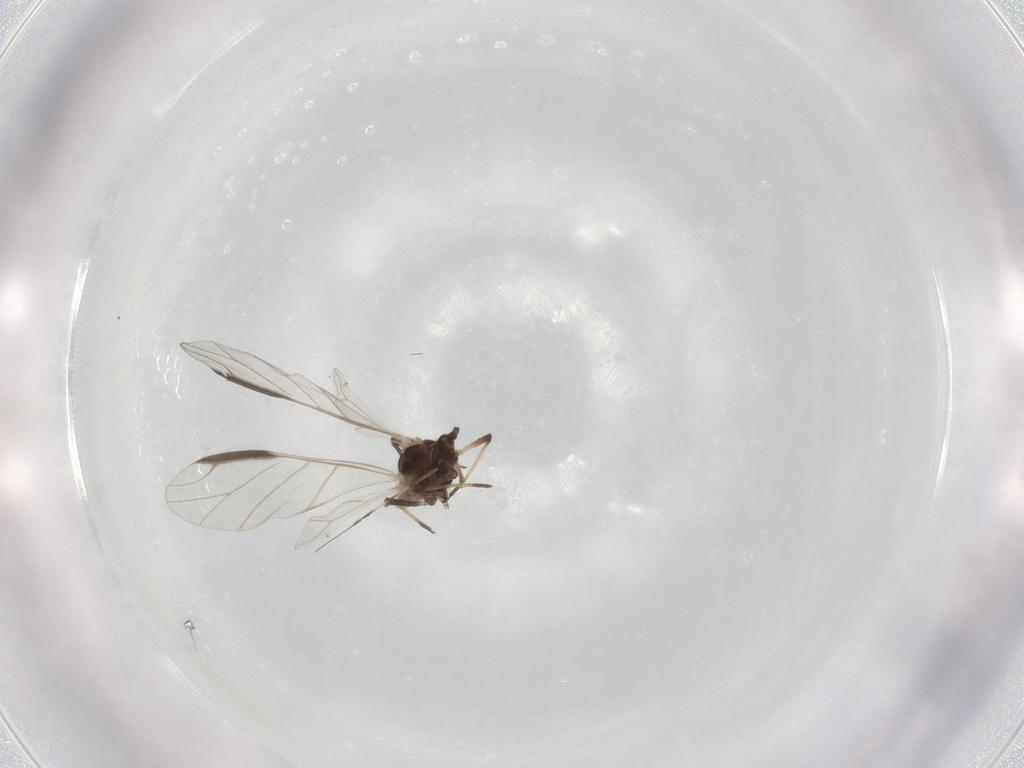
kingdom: Animalia
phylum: Arthropoda
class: Insecta
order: Hemiptera
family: Aphididae
